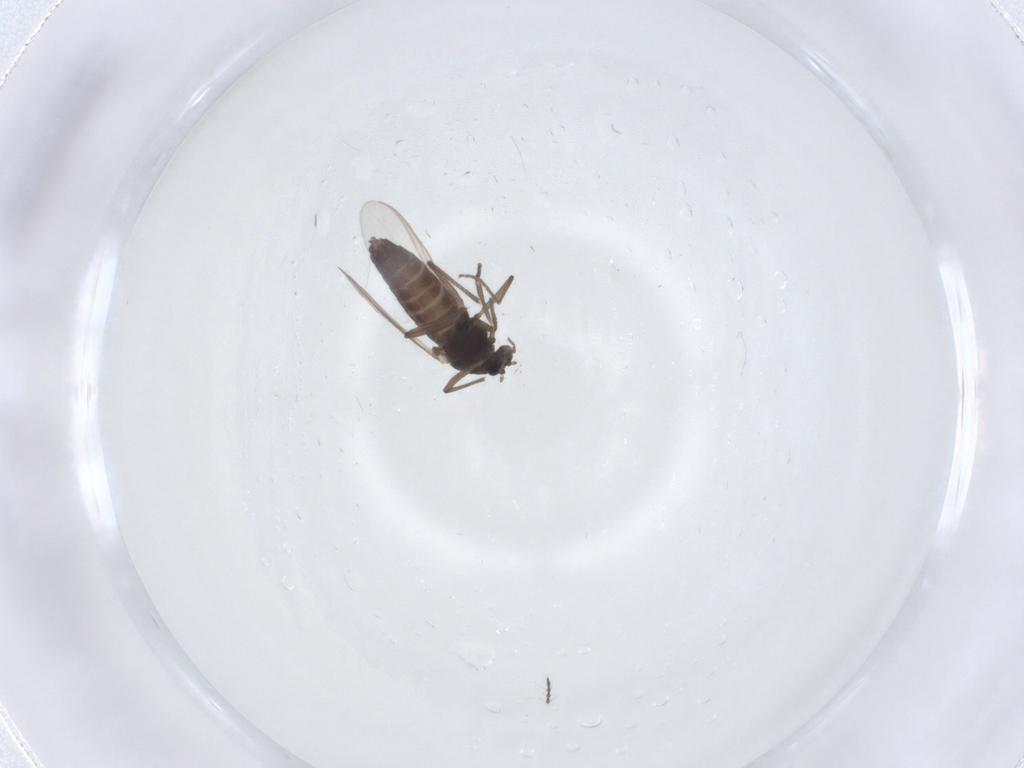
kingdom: Animalia
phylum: Arthropoda
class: Insecta
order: Diptera
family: Chironomidae
